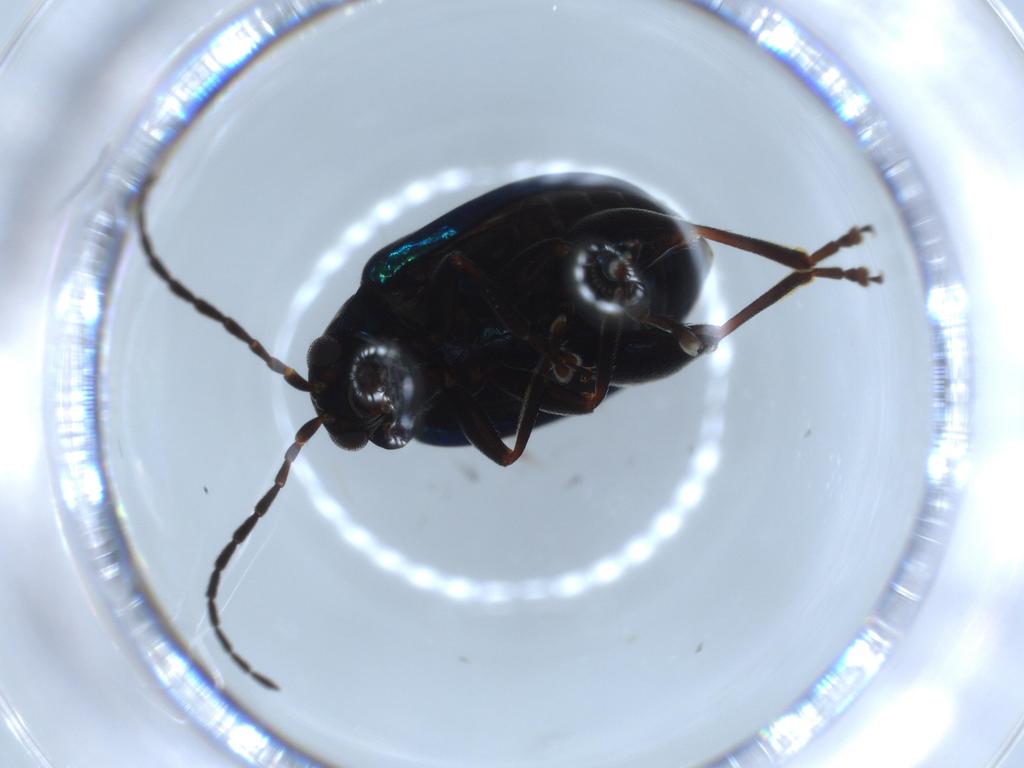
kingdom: Animalia
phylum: Arthropoda
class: Insecta
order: Coleoptera
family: Chrysomelidae
